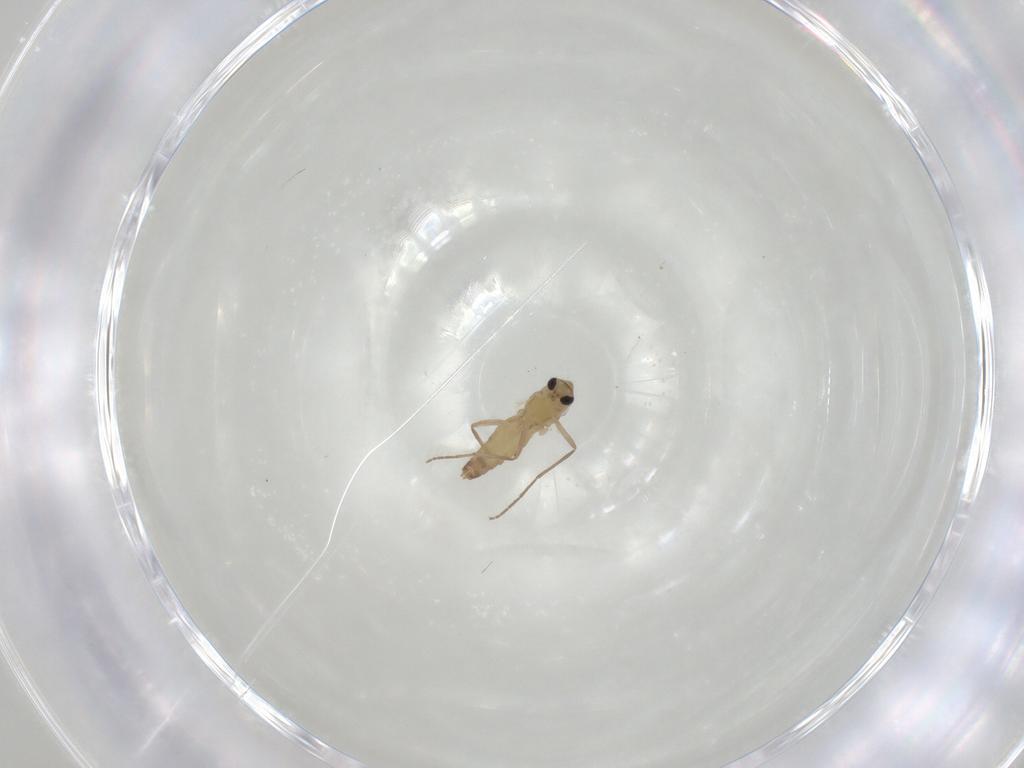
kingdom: Animalia
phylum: Arthropoda
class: Insecta
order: Diptera
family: Chironomidae
